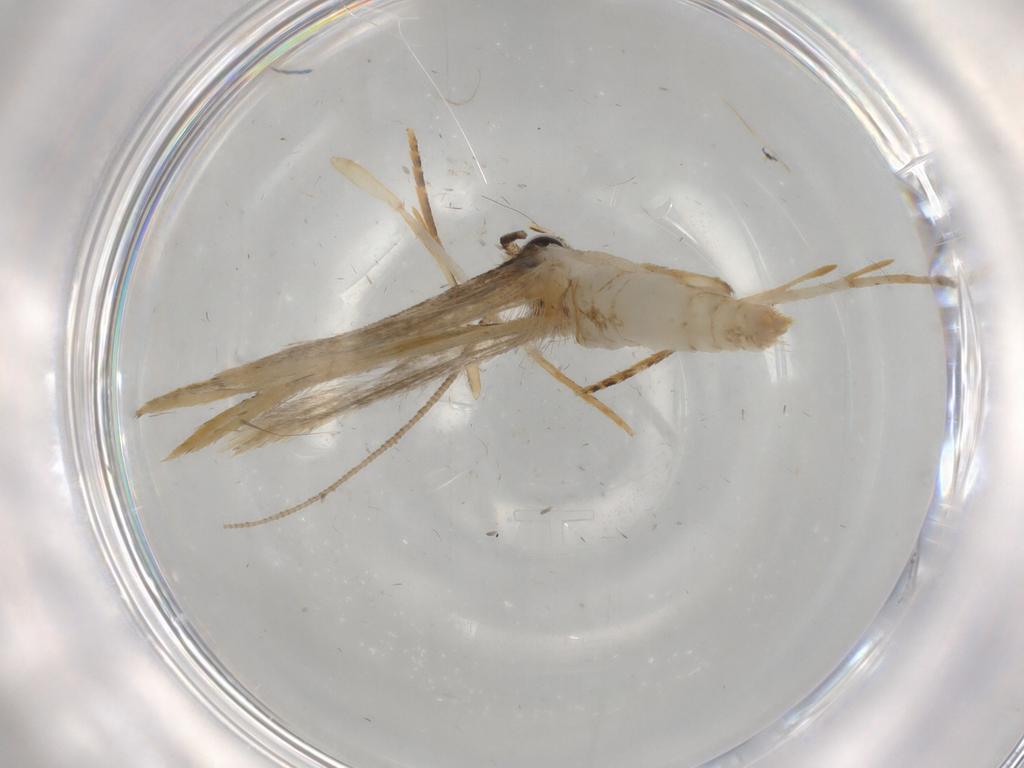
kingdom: Animalia
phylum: Arthropoda
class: Insecta
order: Lepidoptera
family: Tineidae
